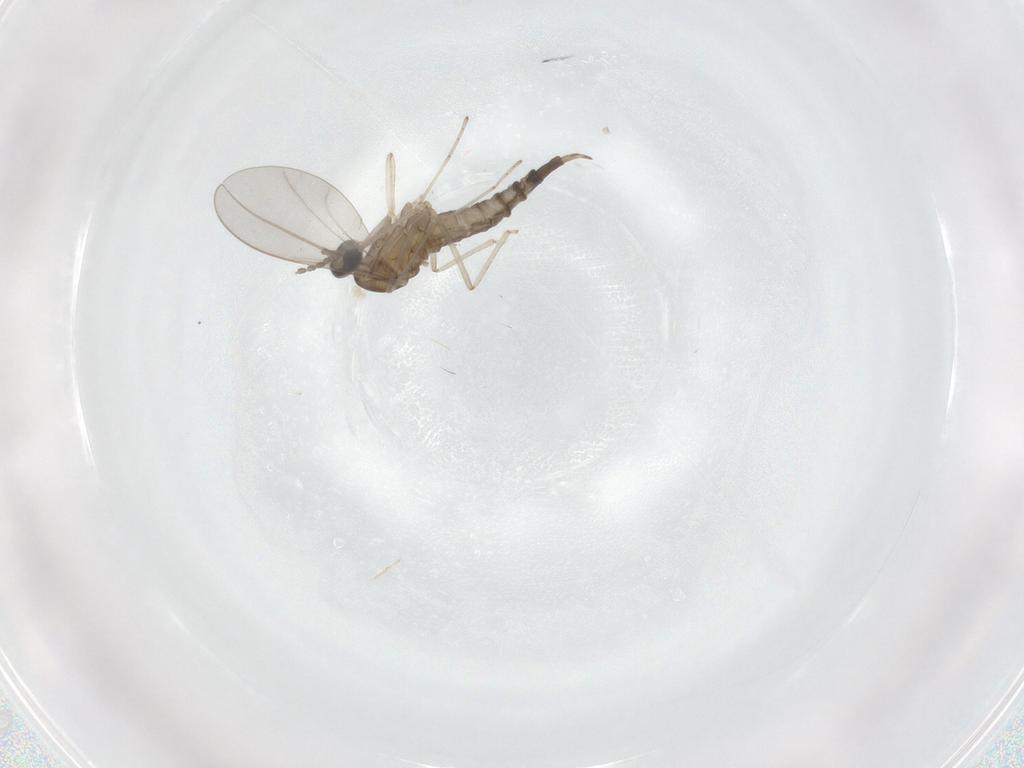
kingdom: Animalia
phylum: Arthropoda
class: Insecta
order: Diptera
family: Cecidomyiidae
